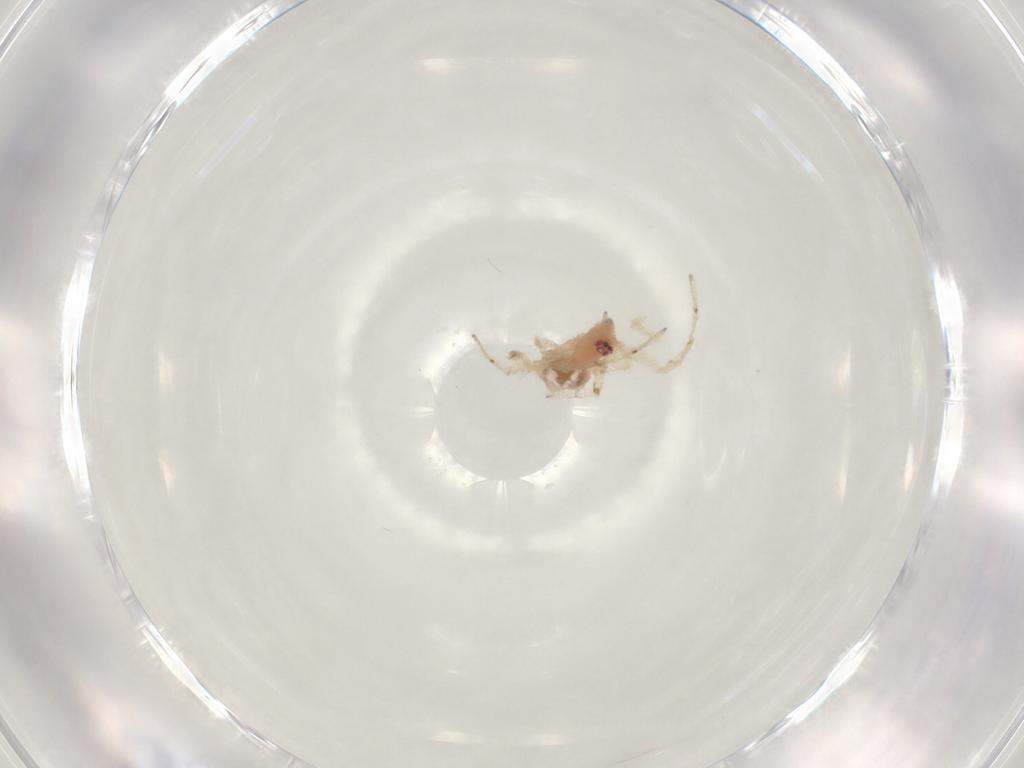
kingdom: Animalia
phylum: Arthropoda
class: Arachnida
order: Araneae
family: Theridiidae
